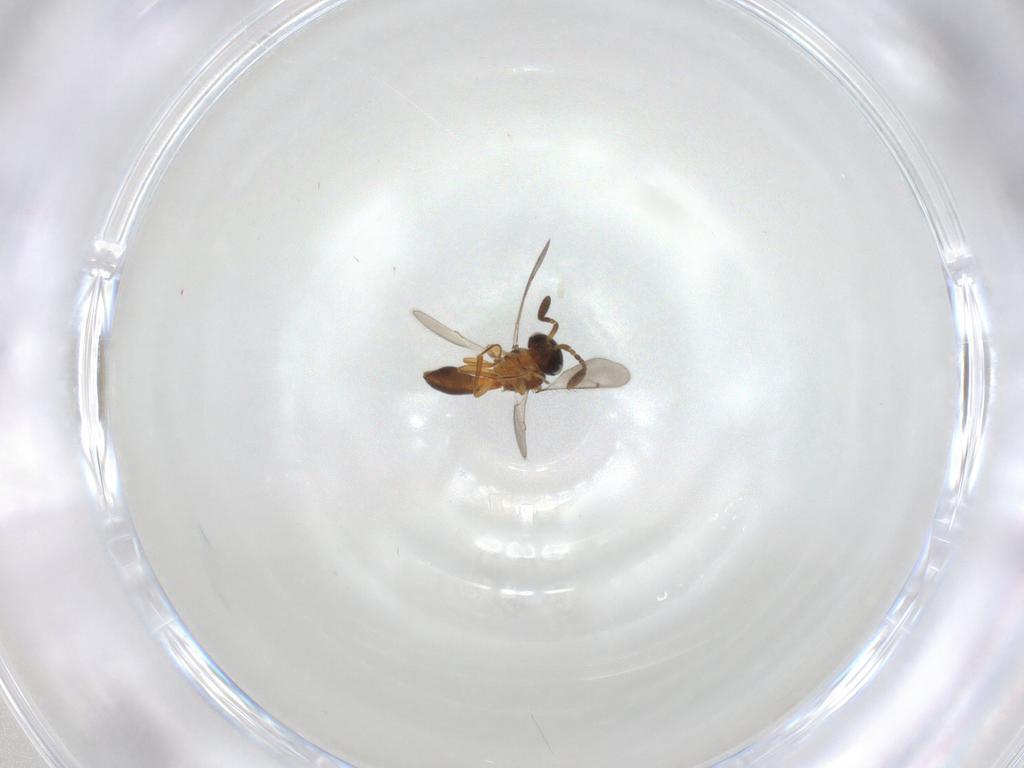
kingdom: Animalia
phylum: Arthropoda
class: Insecta
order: Hymenoptera
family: Scelionidae
